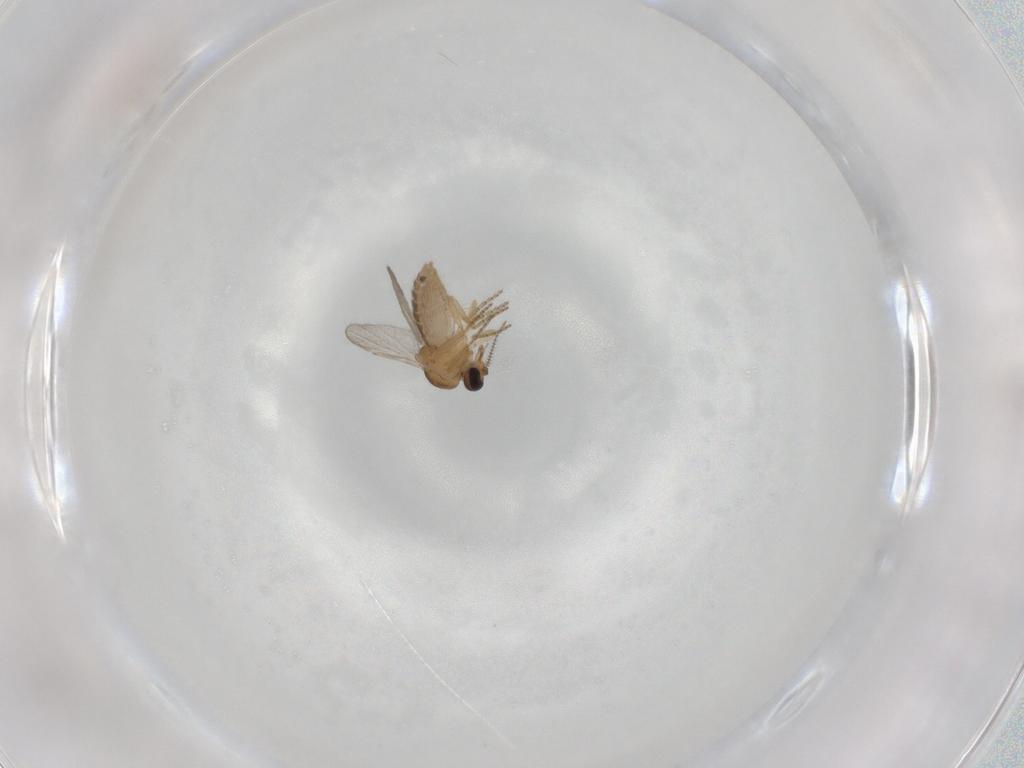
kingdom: Animalia
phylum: Arthropoda
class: Insecta
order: Diptera
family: Ceratopogonidae
